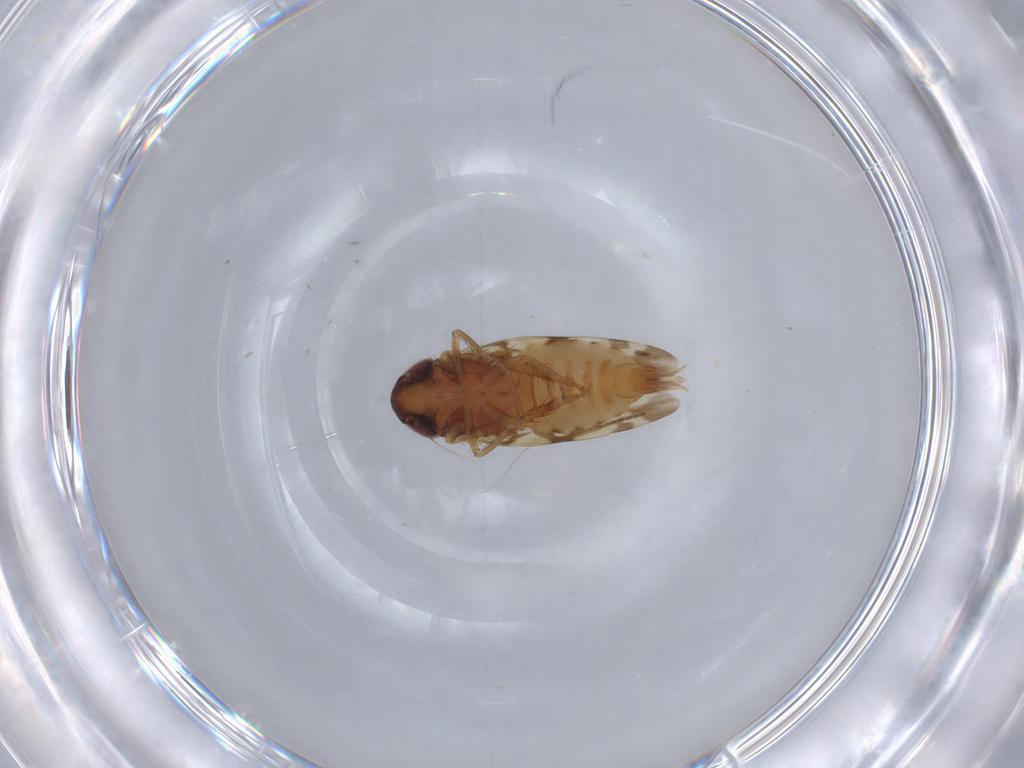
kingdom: Animalia
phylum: Arthropoda
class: Insecta
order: Hemiptera
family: Cicadellidae
